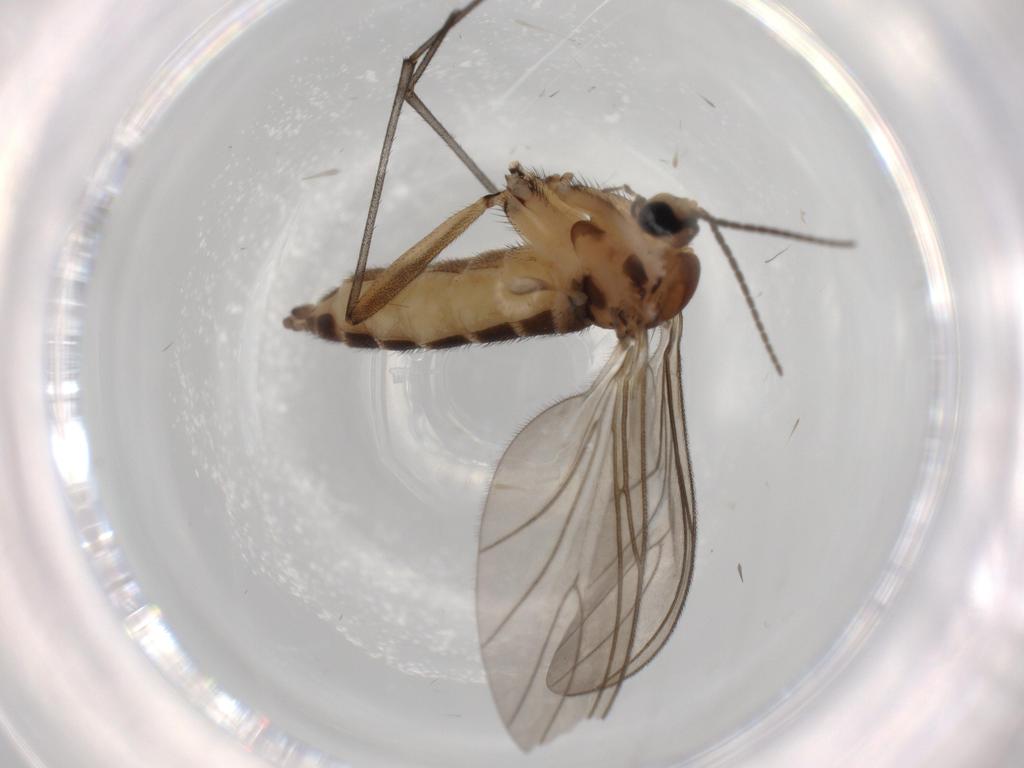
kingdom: Animalia
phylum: Arthropoda
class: Insecta
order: Diptera
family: Sciaridae
